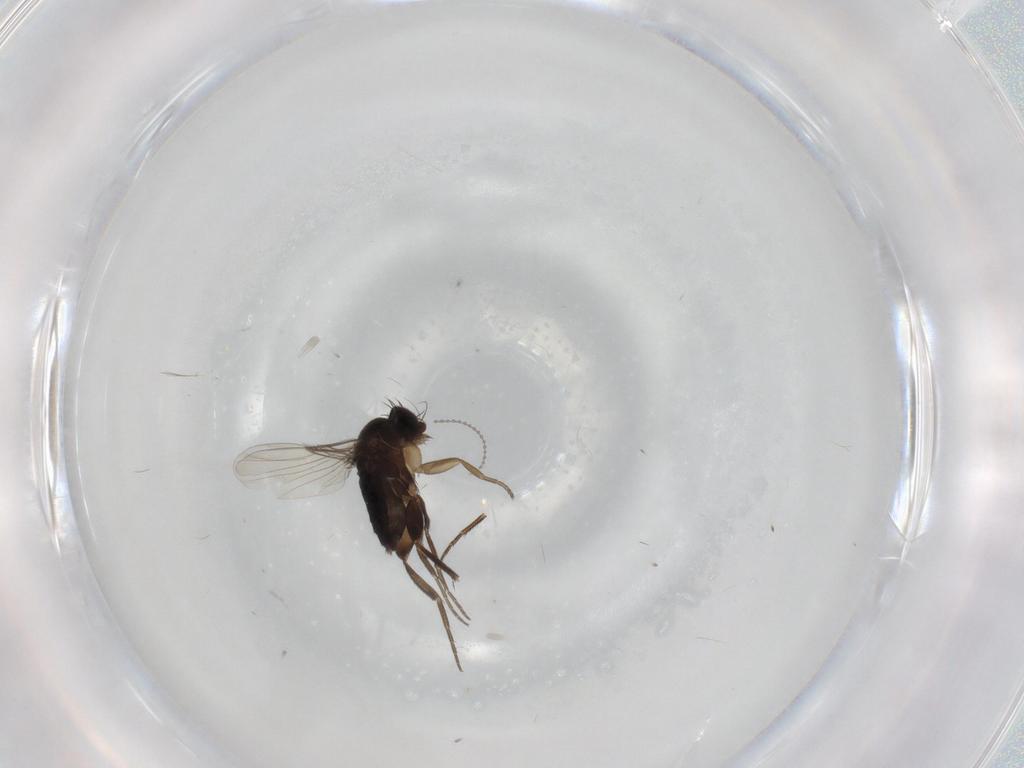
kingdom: Animalia
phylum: Arthropoda
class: Insecta
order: Diptera
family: Phoridae
